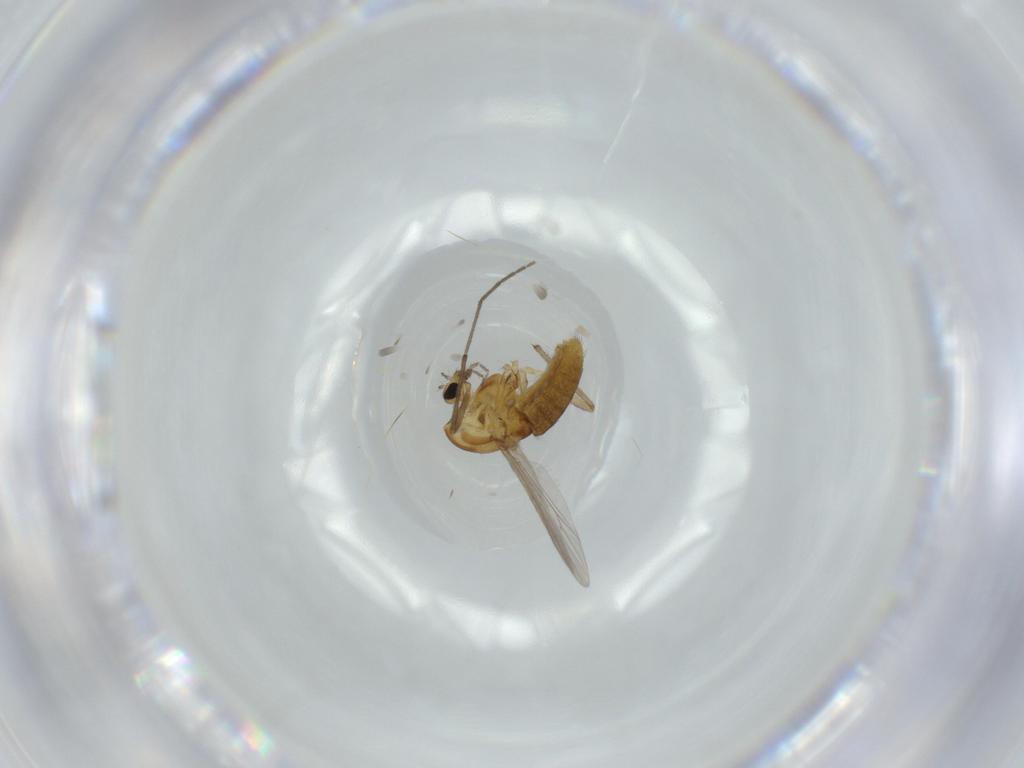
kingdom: Animalia
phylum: Arthropoda
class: Insecta
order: Diptera
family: Chironomidae
